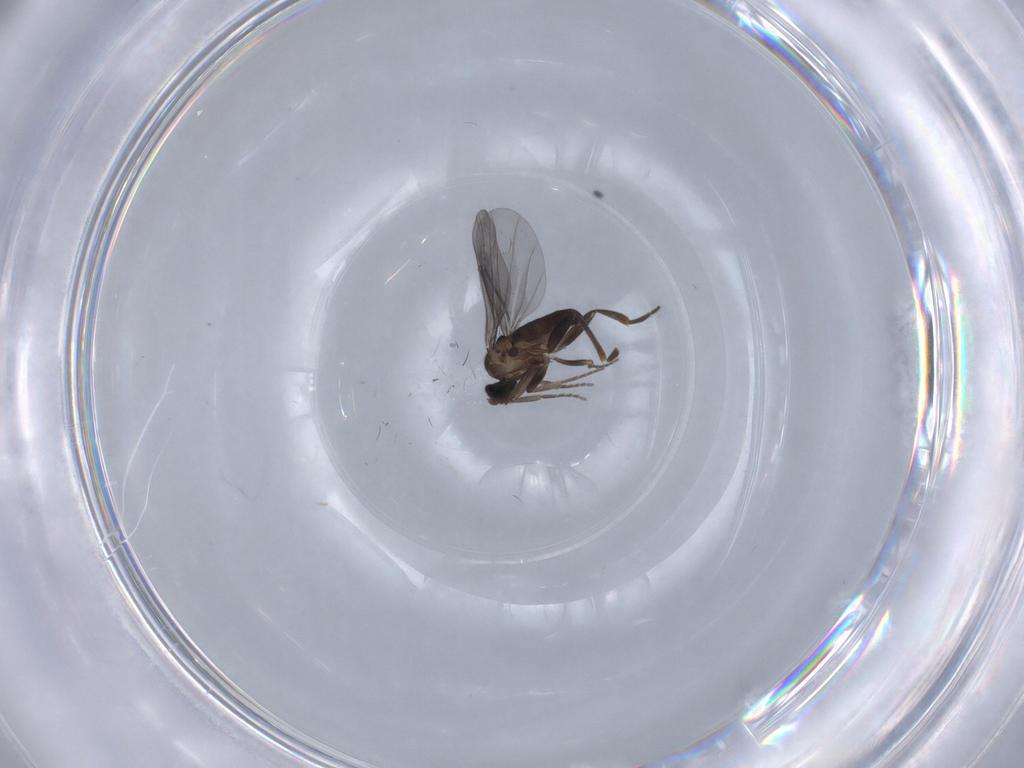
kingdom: Animalia
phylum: Arthropoda
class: Insecta
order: Diptera
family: Phoridae
